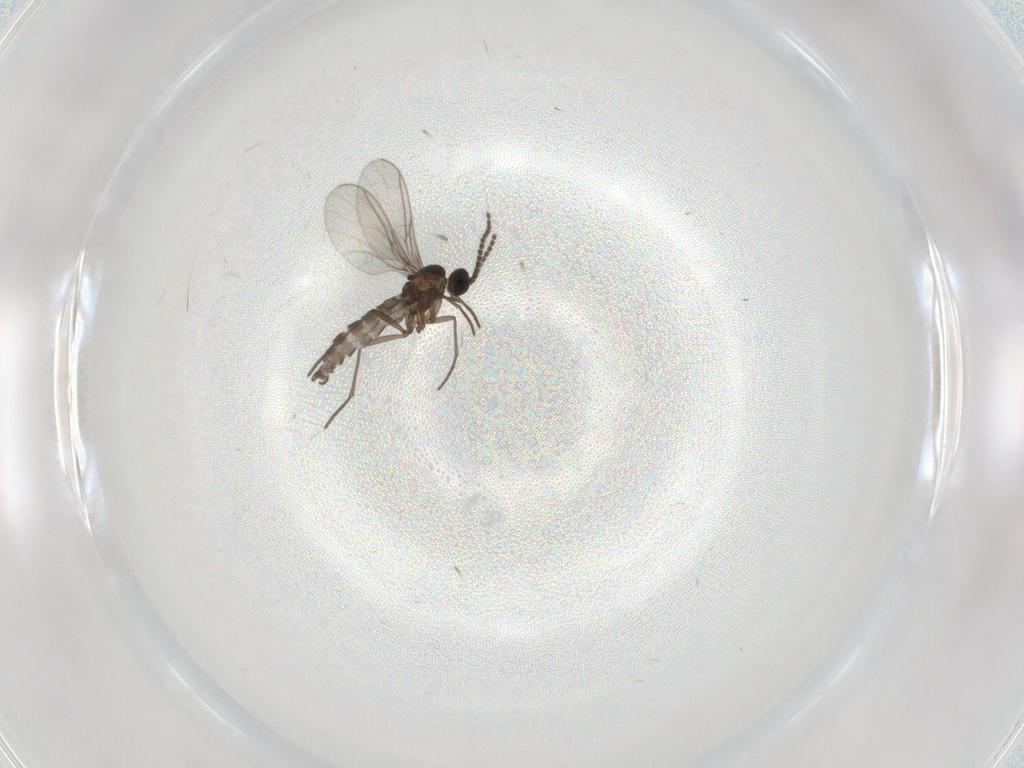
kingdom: Animalia
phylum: Arthropoda
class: Insecta
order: Diptera
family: Phoridae
